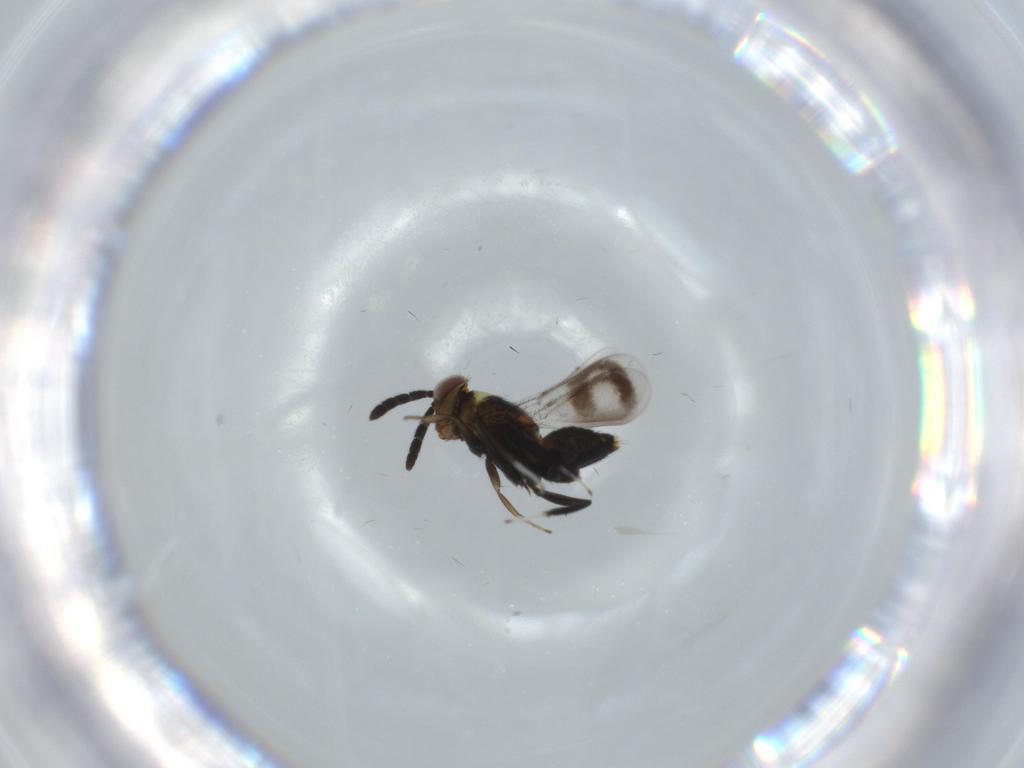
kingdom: Animalia
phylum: Arthropoda
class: Insecta
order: Hymenoptera
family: Aphelinidae
